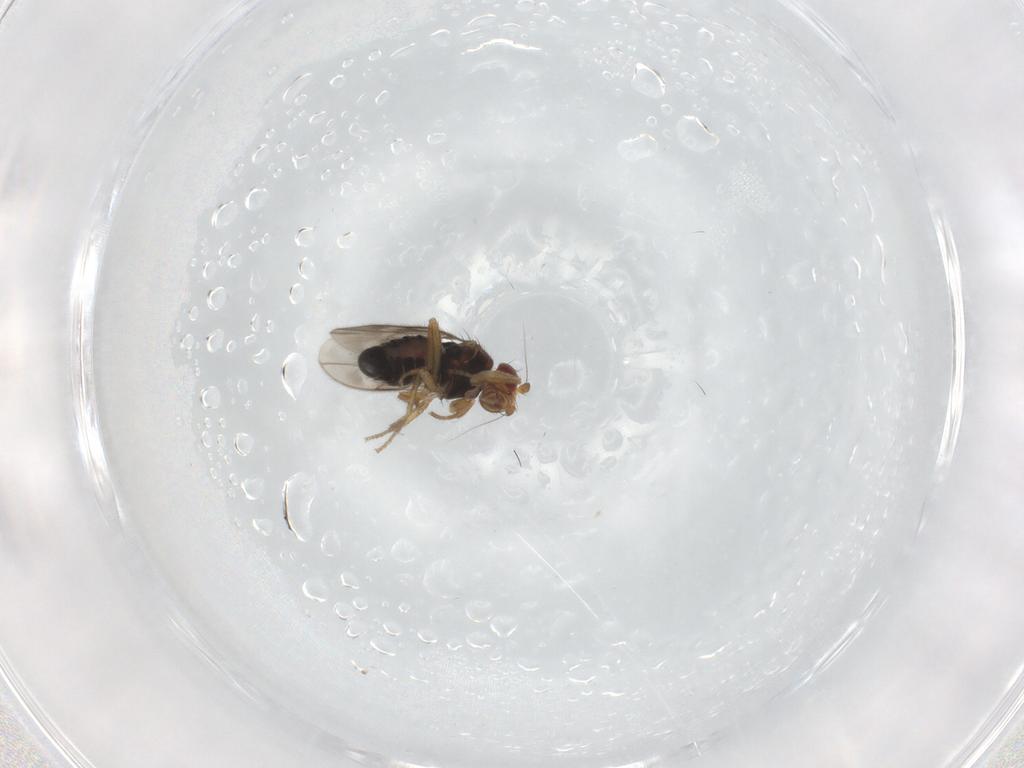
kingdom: Animalia
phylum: Arthropoda
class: Insecta
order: Diptera
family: Sphaeroceridae
